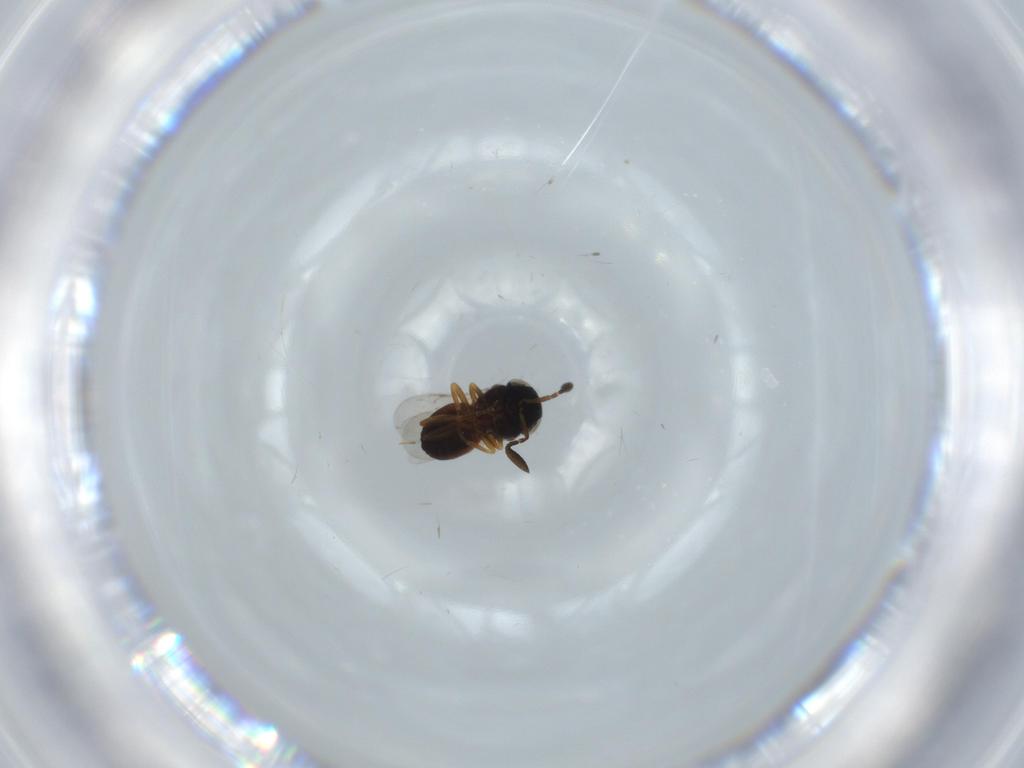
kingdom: Animalia
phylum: Arthropoda
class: Insecta
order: Coleoptera
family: Curculionidae
